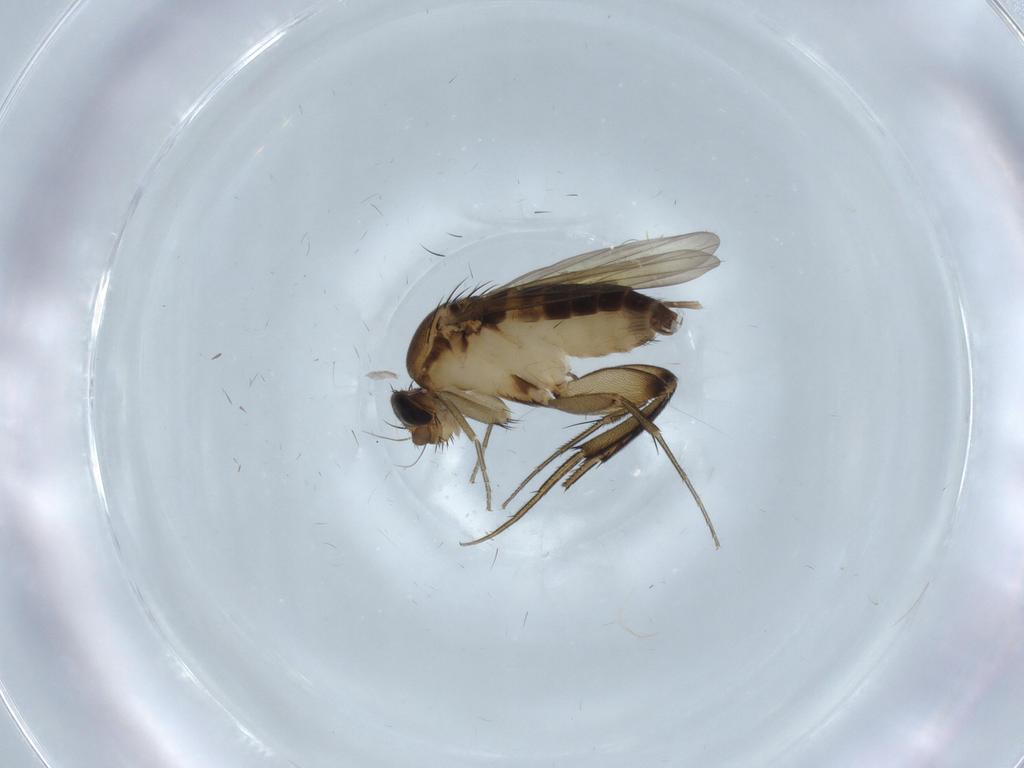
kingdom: Animalia
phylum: Arthropoda
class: Insecta
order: Diptera
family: Phoridae
